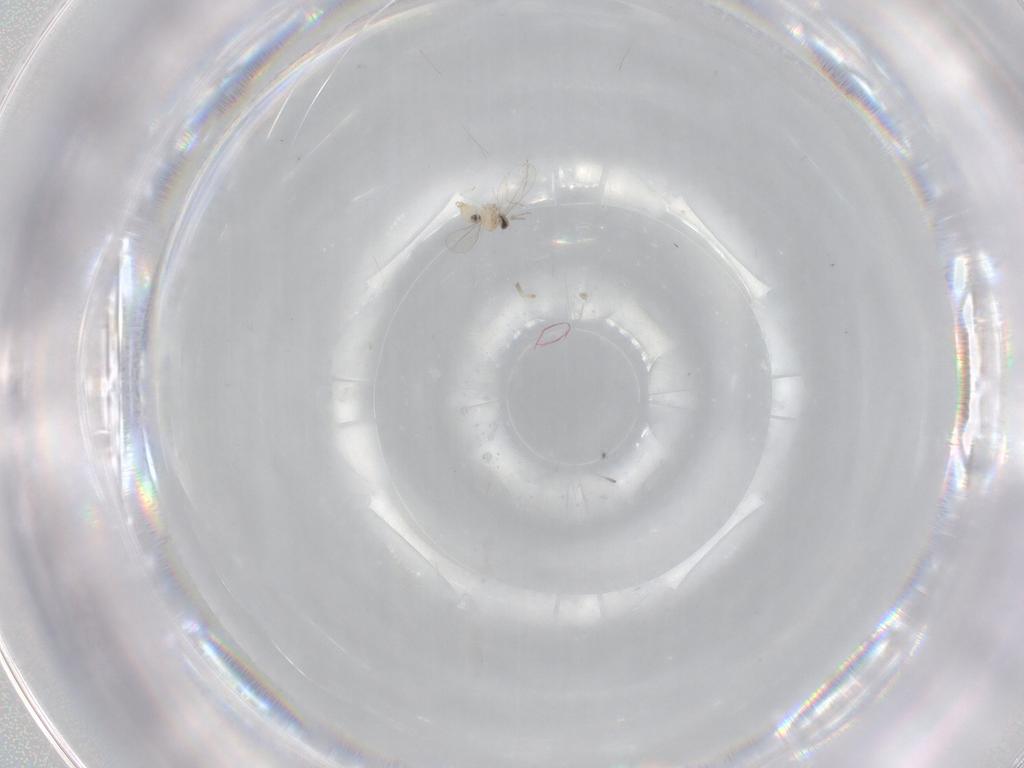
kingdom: Animalia
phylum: Arthropoda
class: Insecta
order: Diptera
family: Cecidomyiidae
